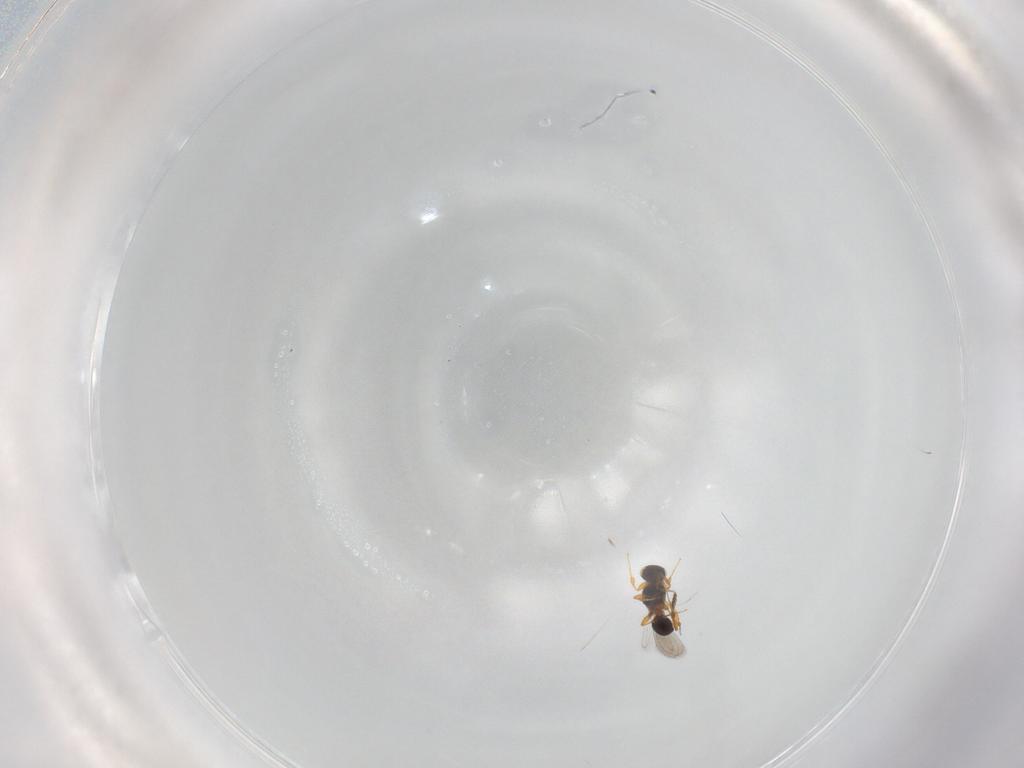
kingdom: Animalia
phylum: Arthropoda
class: Insecta
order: Hymenoptera
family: Platygastridae
